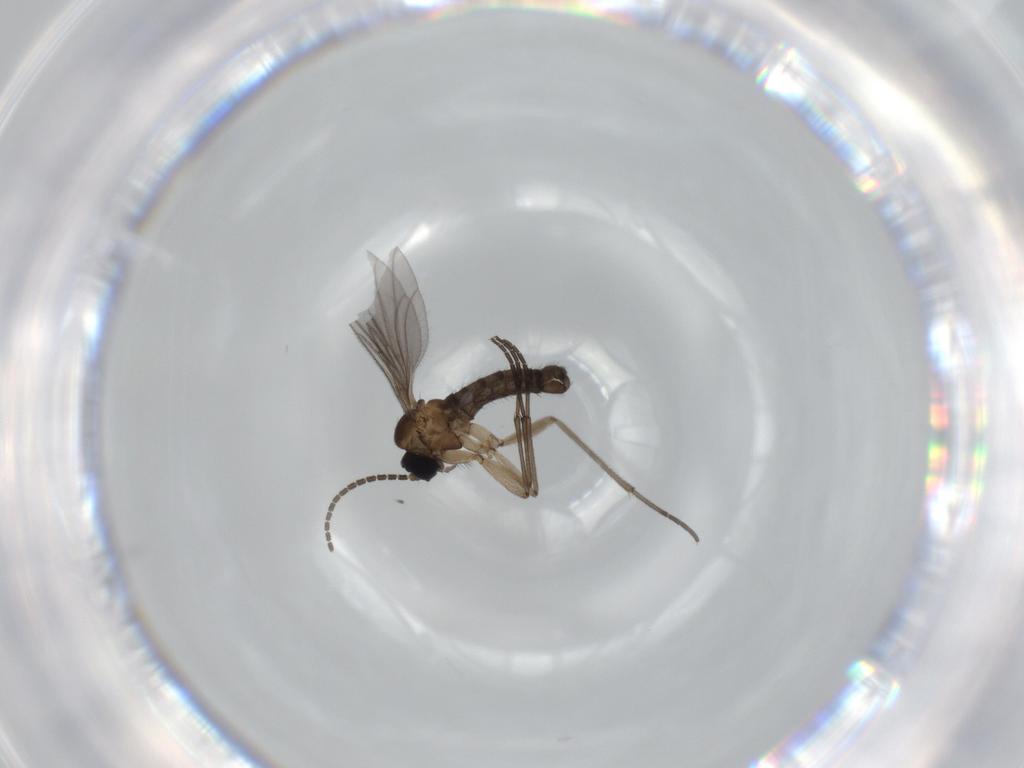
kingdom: Animalia
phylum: Arthropoda
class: Insecta
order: Diptera
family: Sciaridae
